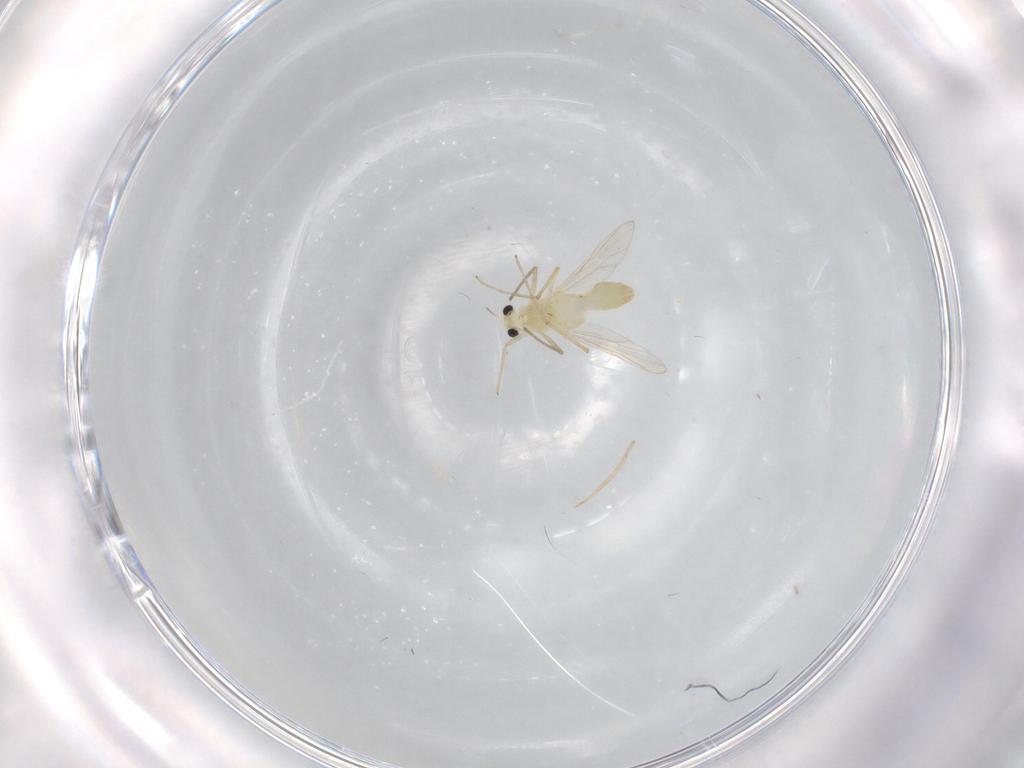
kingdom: Animalia
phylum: Arthropoda
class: Insecta
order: Diptera
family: Chironomidae
